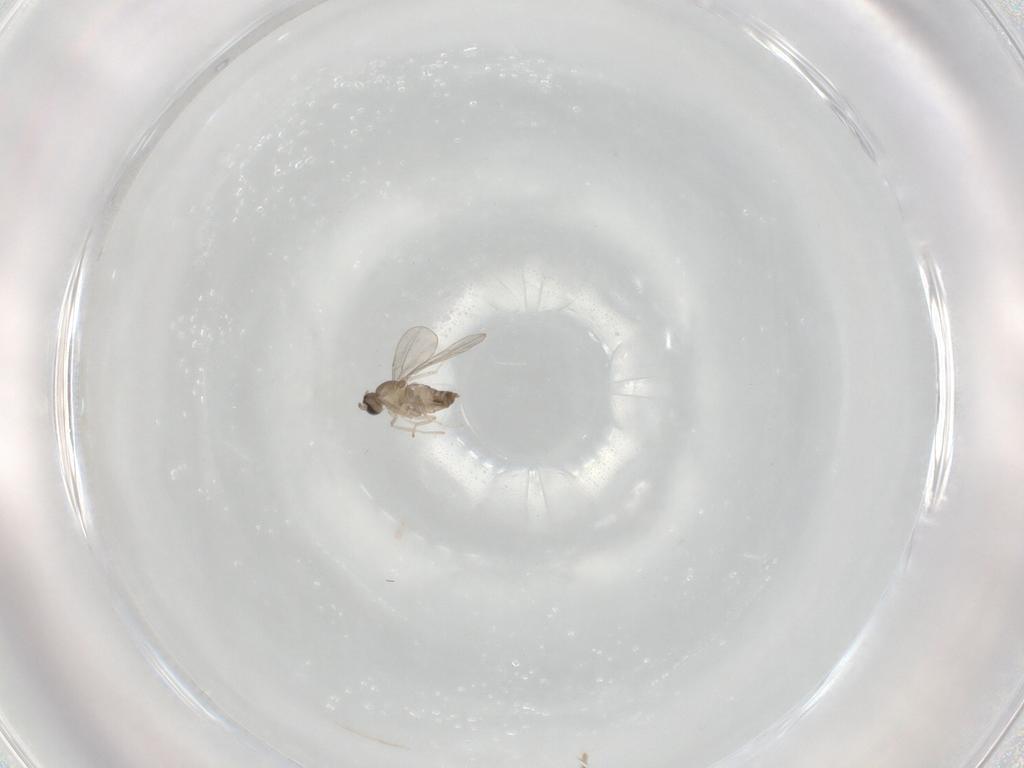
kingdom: Animalia
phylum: Arthropoda
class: Insecta
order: Diptera
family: Cecidomyiidae
